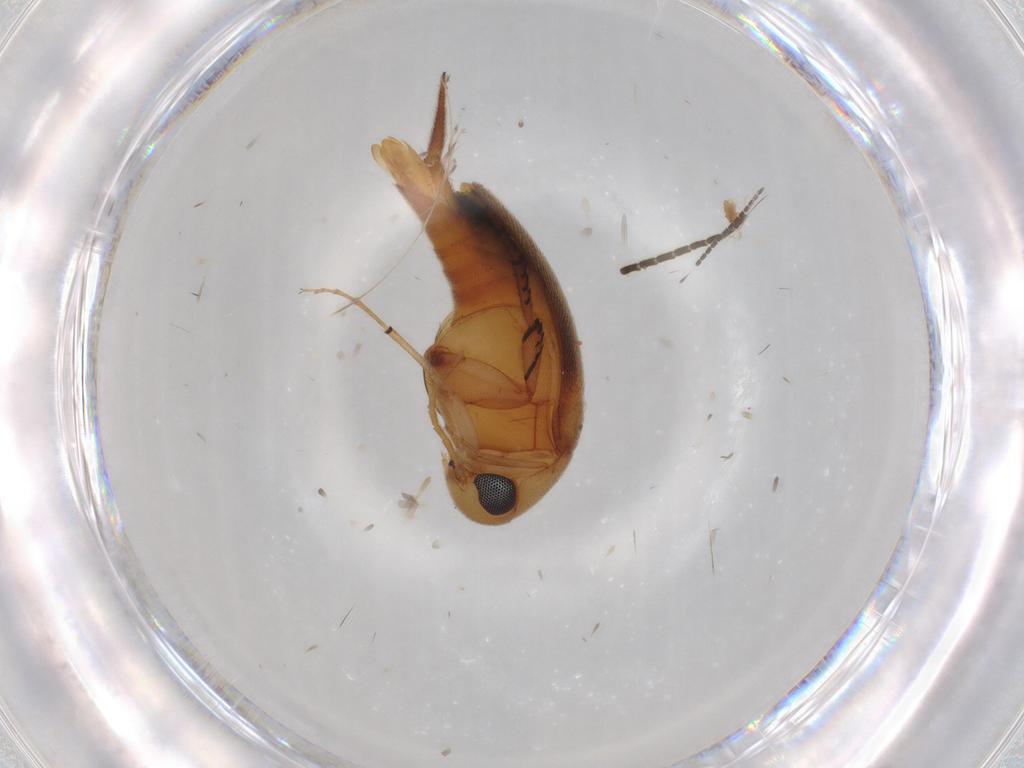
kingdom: Animalia
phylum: Arthropoda
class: Insecta
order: Coleoptera
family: Mordellidae
